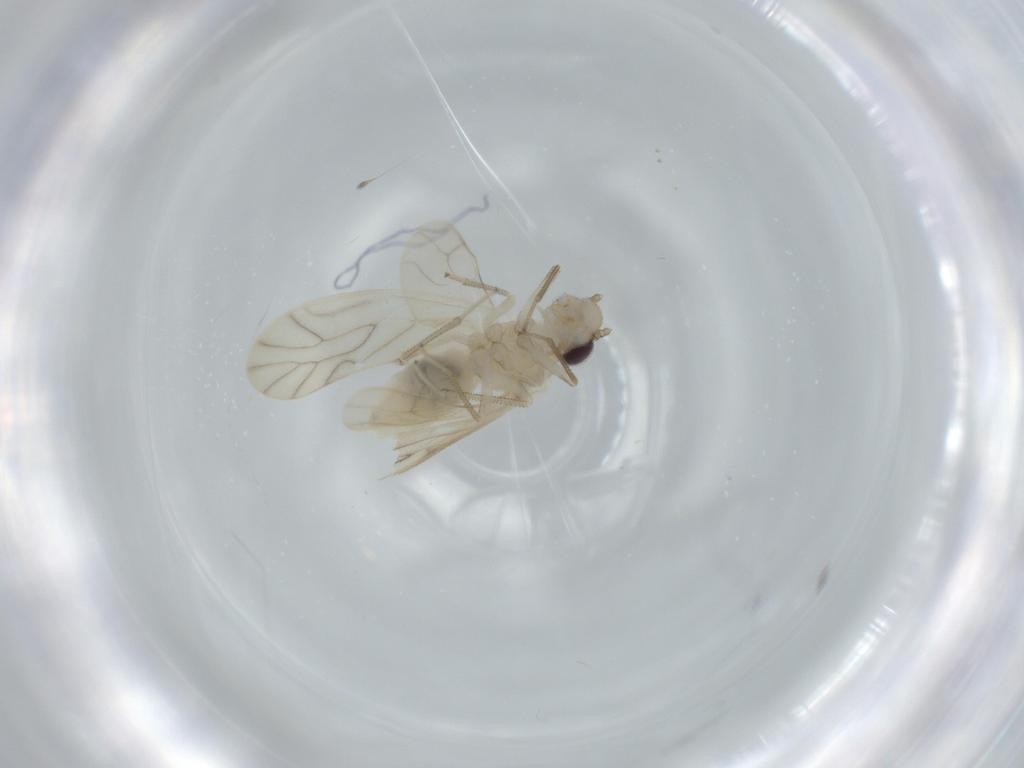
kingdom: Animalia
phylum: Arthropoda
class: Insecta
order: Psocodea
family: Caeciliusidae
